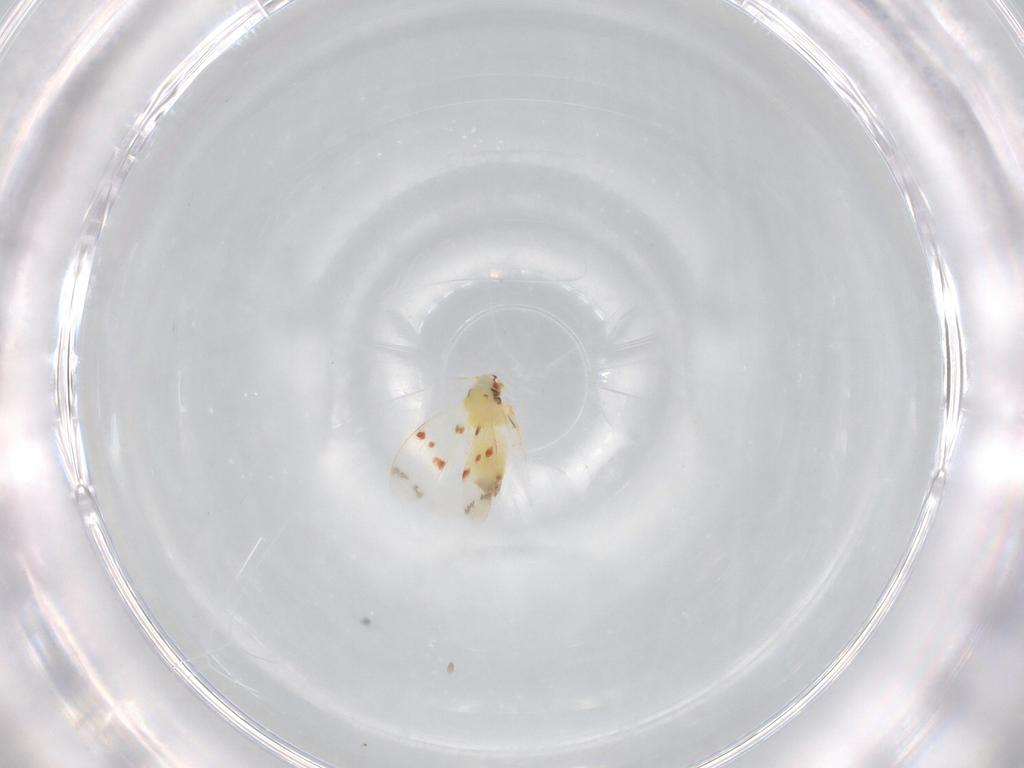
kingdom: Animalia
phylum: Arthropoda
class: Insecta
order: Hemiptera
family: Aleyrodidae
